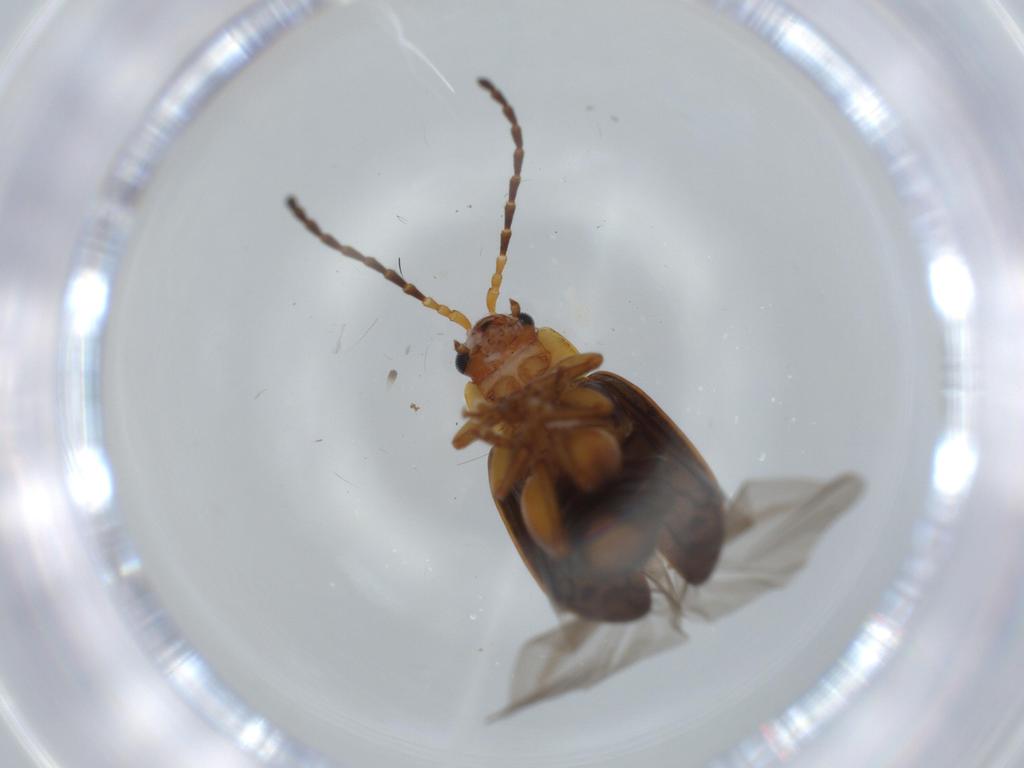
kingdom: Animalia
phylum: Arthropoda
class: Insecta
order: Coleoptera
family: Chrysomelidae
